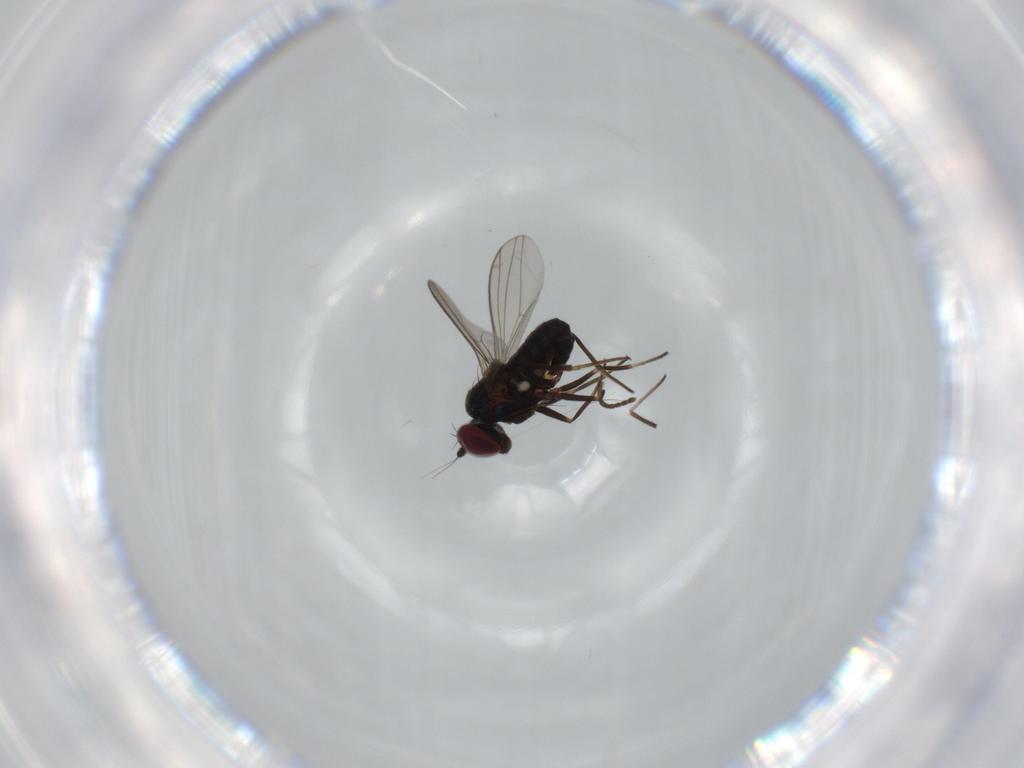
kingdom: Animalia
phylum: Arthropoda
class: Insecta
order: Diptera
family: Dolichopodidae
